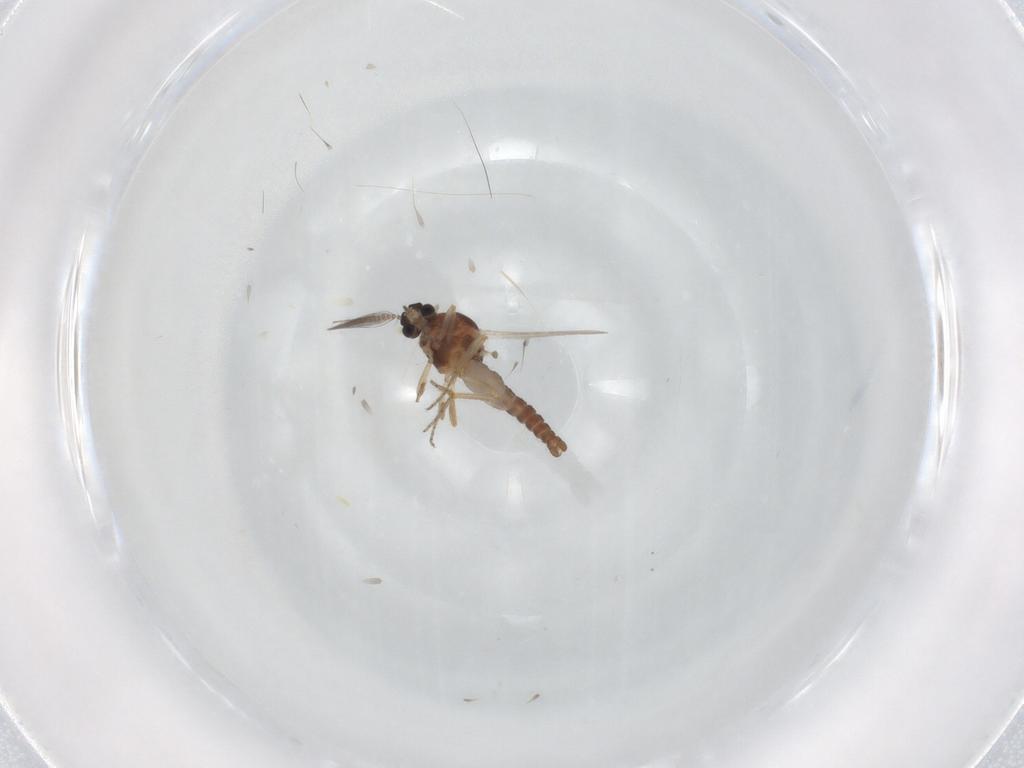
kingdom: Animalia
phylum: Arthropoda
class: Insecta
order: Diptera
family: Ceratopogonidae
